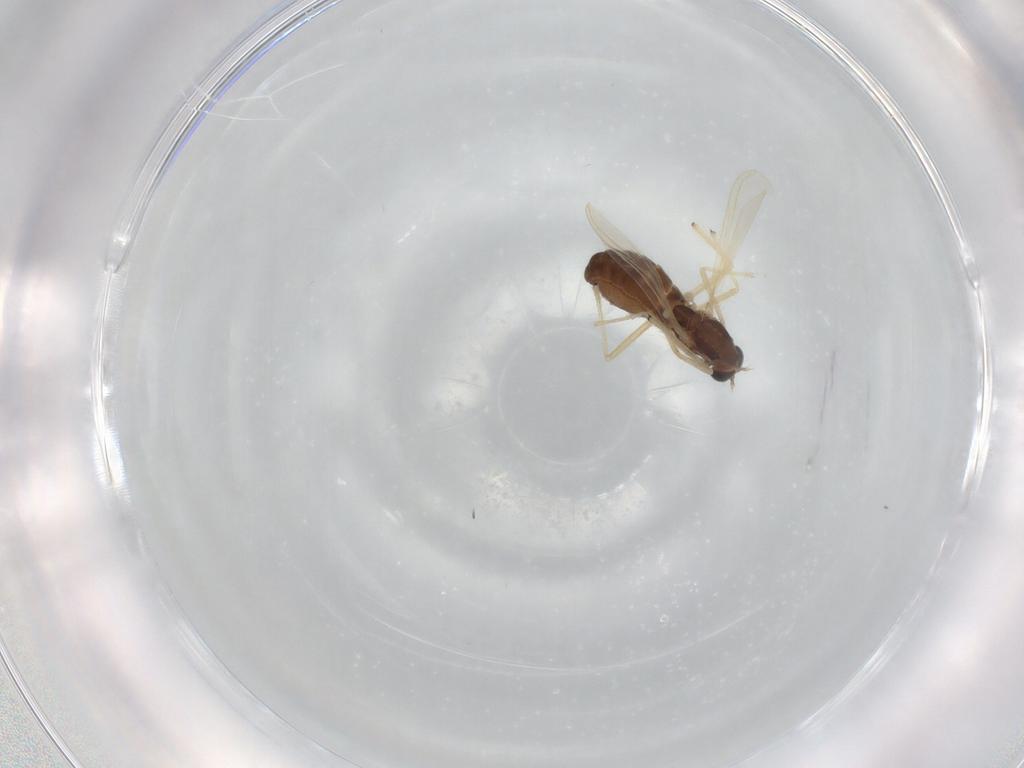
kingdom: Animalia
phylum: Arthropoda
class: Insecta
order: Diptera
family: Chironomidae
